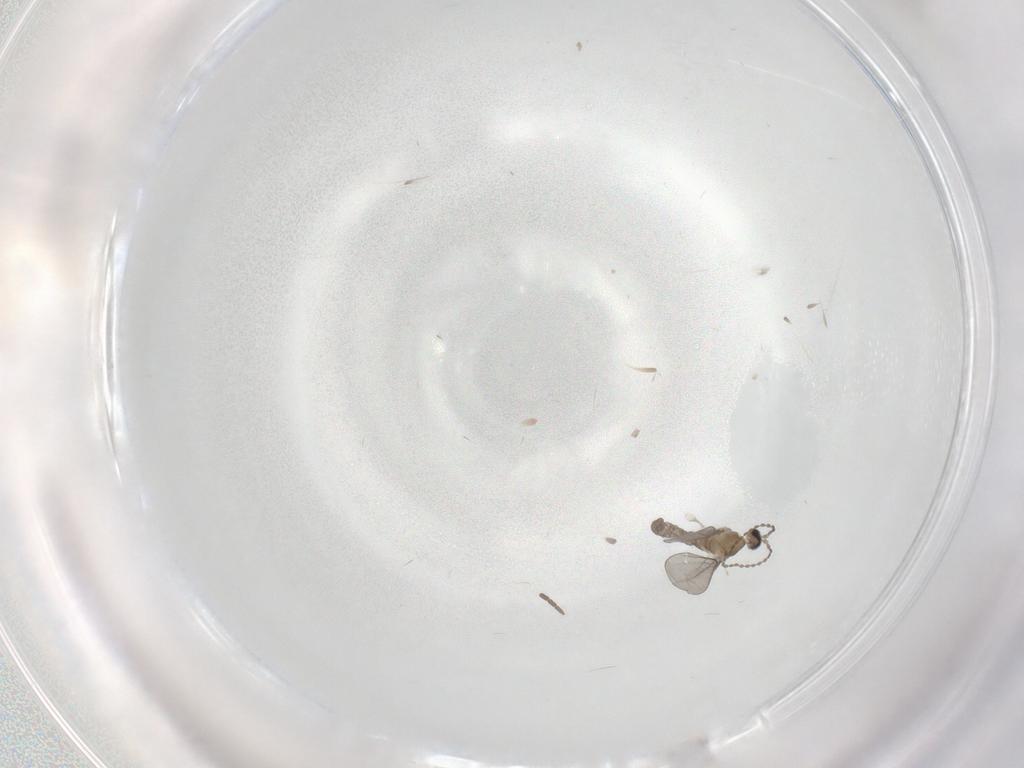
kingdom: Animalia
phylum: Arthropoda
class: Insecta
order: Diptera
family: Cecidomyiidae
